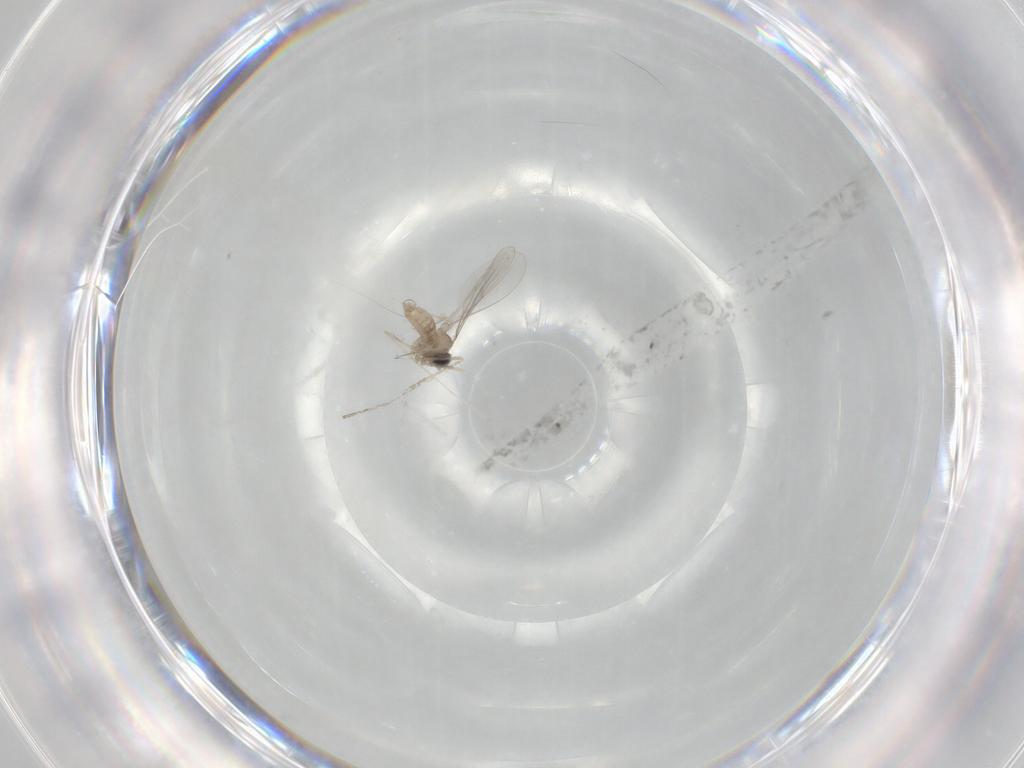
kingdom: Animalia
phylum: Arthropoda
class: Insecta
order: Diptera
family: Cecidomyiidae
